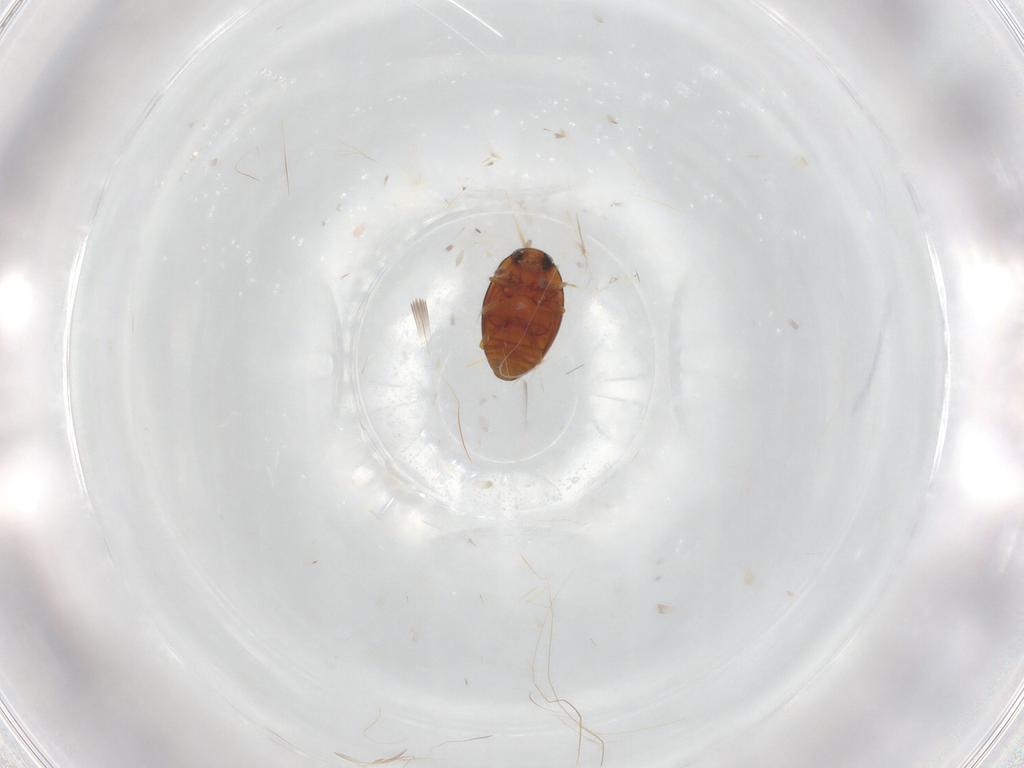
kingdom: Animalia
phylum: Arthropoda
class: Insecta
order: Coleoptera
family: Cryptophagidae
